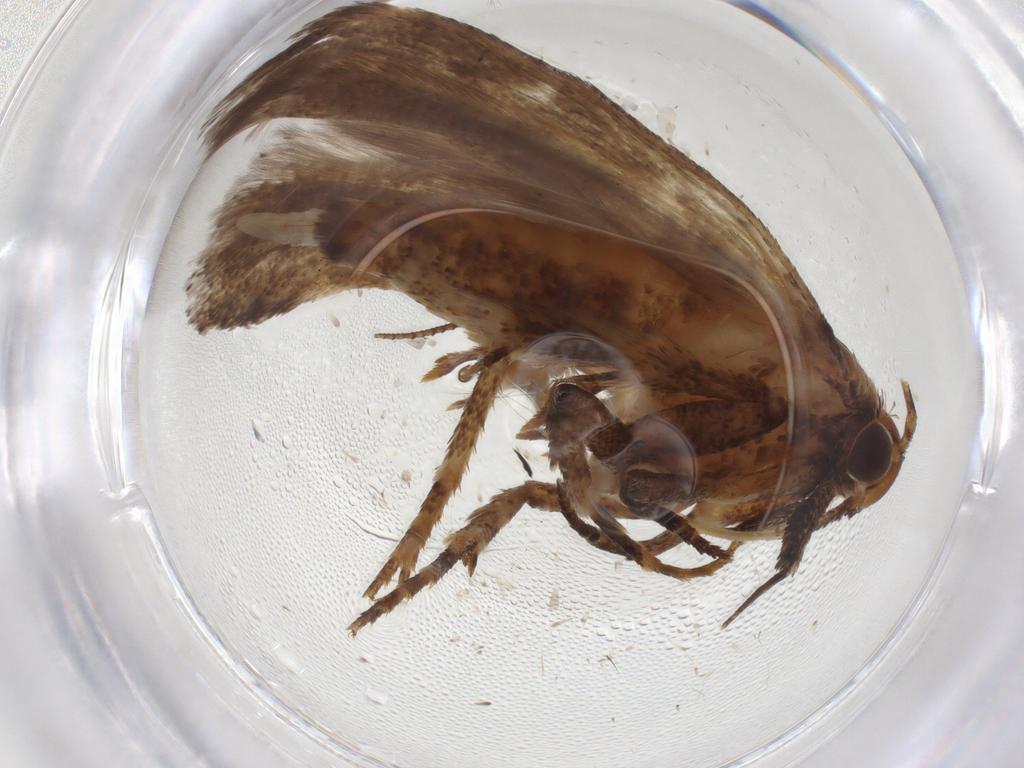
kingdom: Animalia
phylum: Arthropoda
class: Insecta
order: Lepidoptera
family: Gelechiidae
